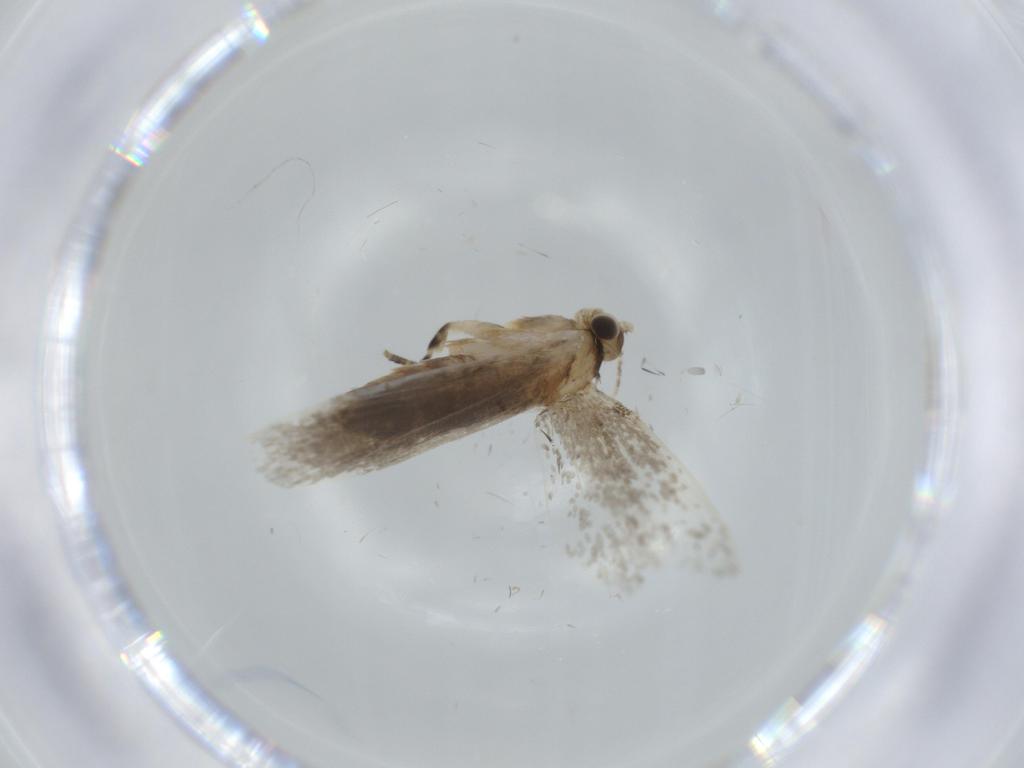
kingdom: Animalia
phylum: Arthropoda
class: Insecta
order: Lepidoptera
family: Tineidae
